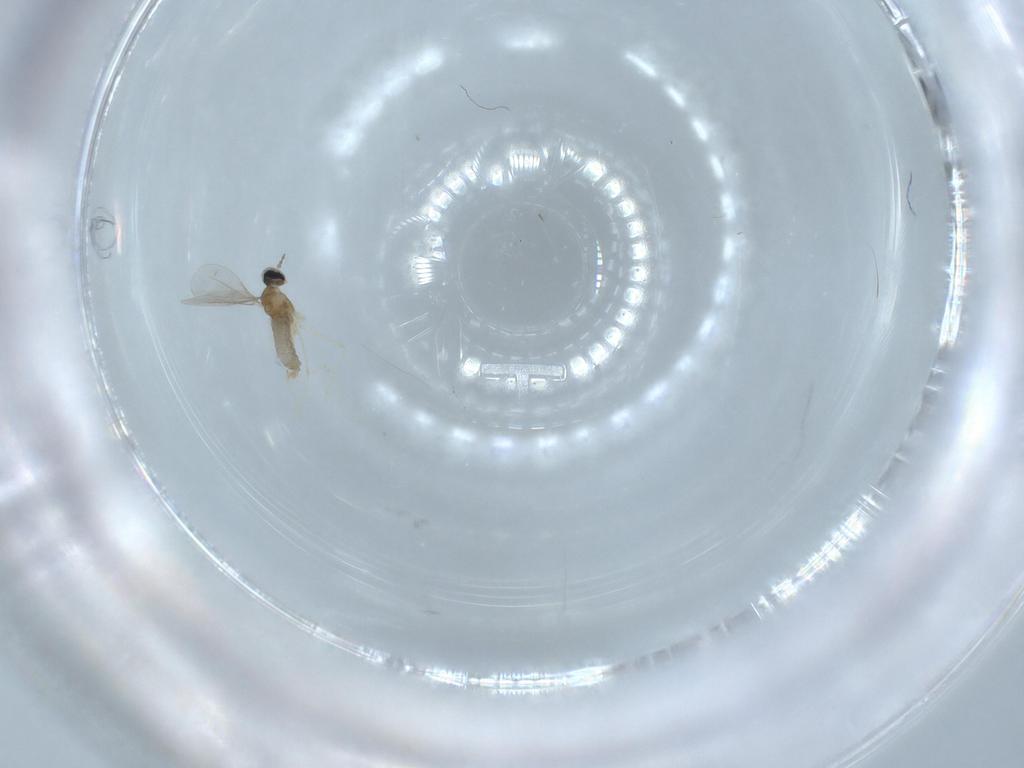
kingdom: Animalia
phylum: Arthropoda
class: Insecta
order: Diptera
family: Cecidomyiidae
